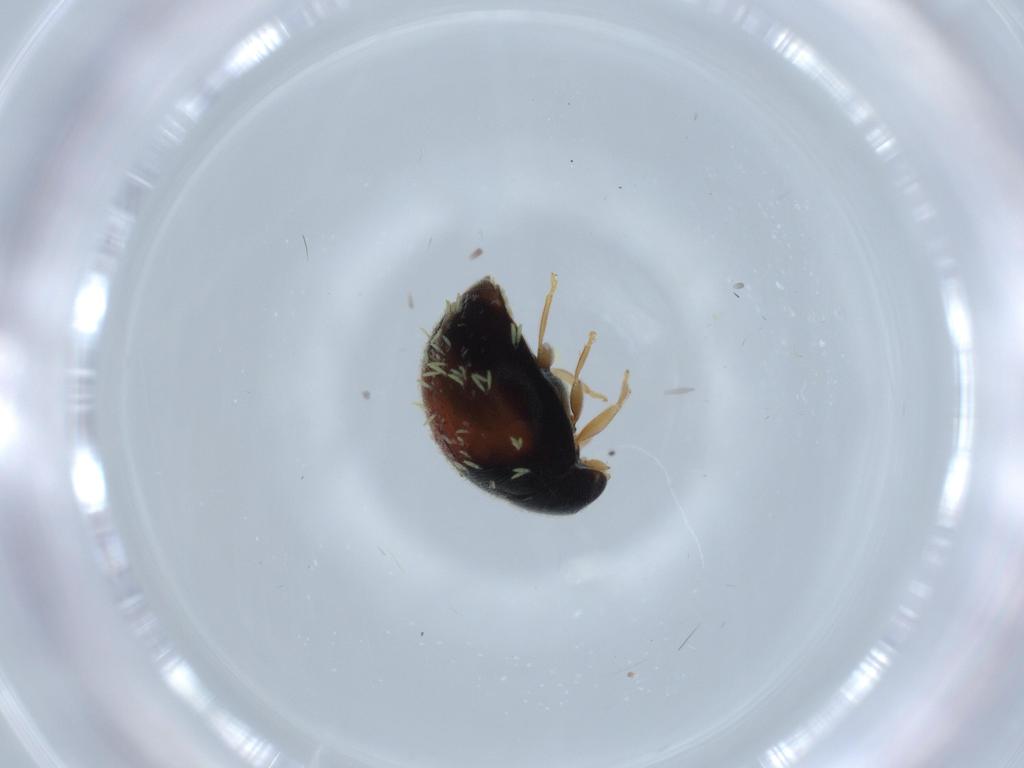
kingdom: Animalia
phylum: Arthropoda
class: Insecta
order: Coleoptera
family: Coccinellidae
